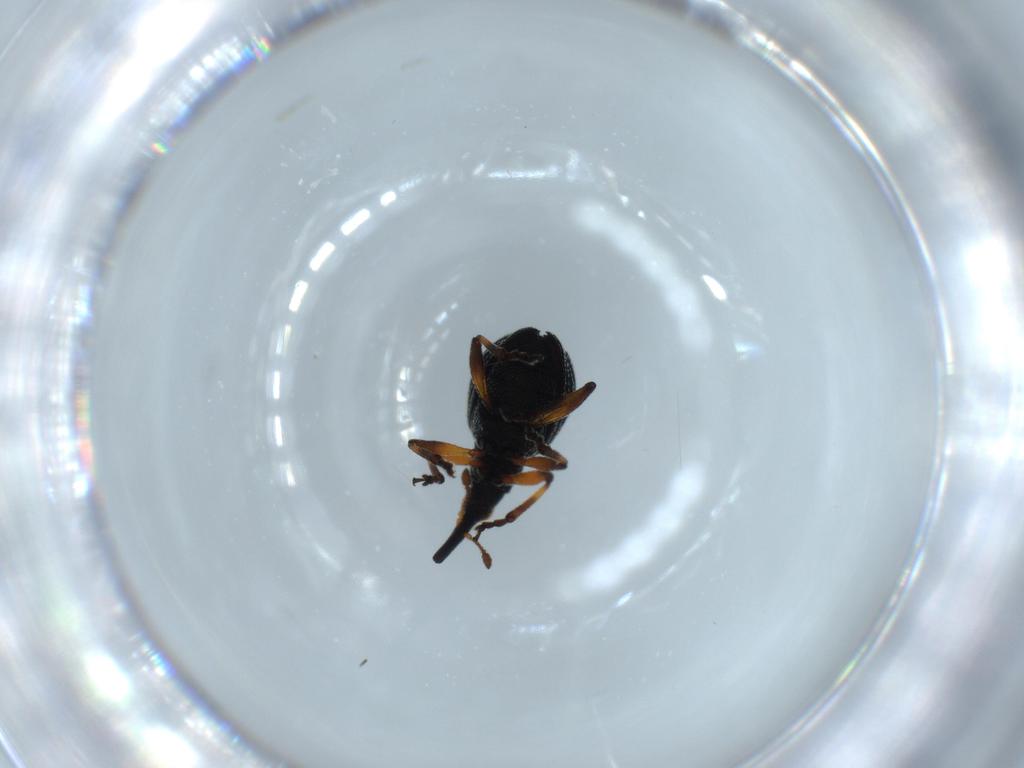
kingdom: Animalia
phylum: Arthropoda
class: Insecta
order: Coleoptera
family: Brentidae
